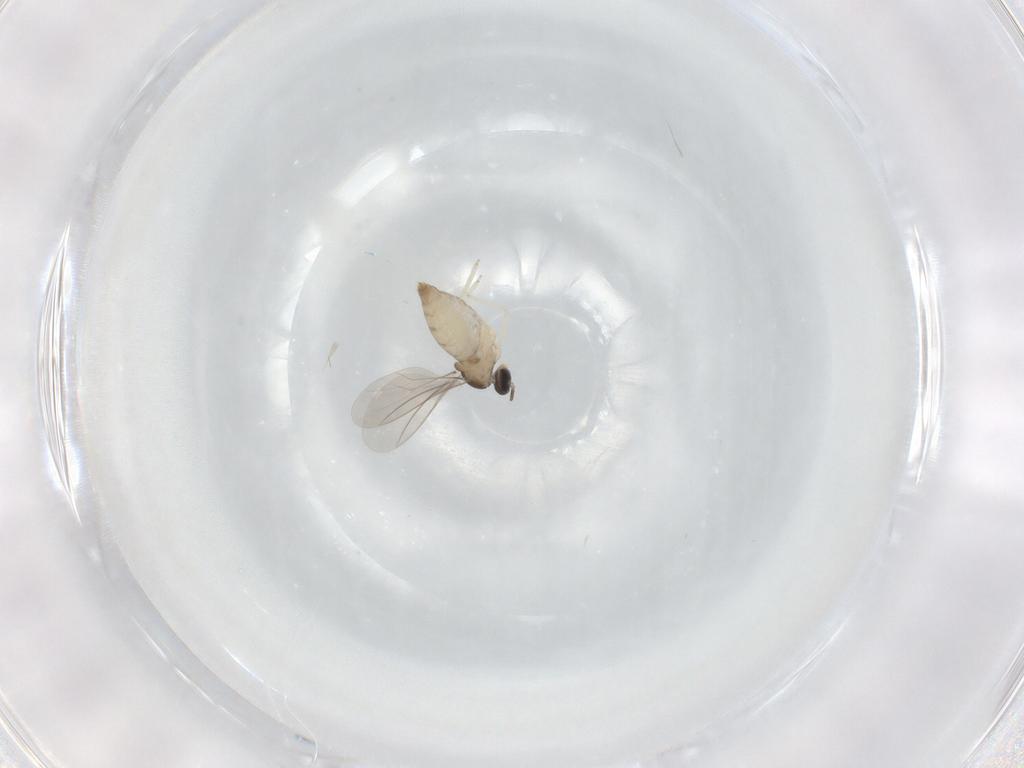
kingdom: Animalia
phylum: Arthropoda
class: Insecta
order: Diptera
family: Cecidomyiidae
